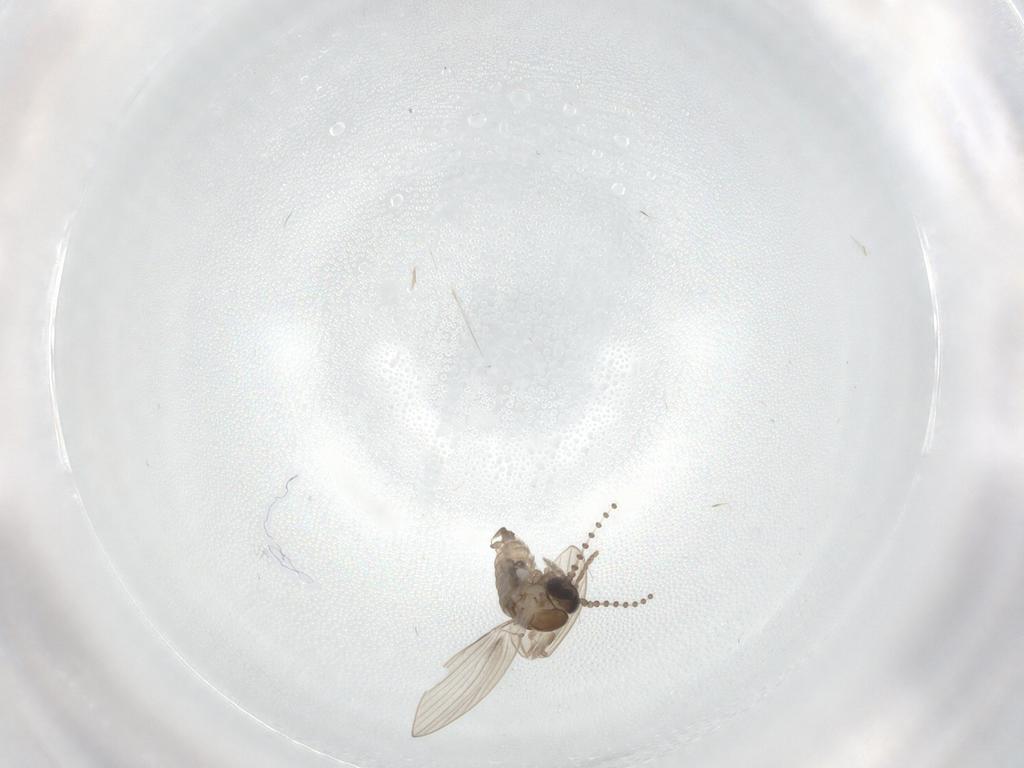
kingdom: Animalia
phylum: Arthropoda
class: Insecta
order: Diptera
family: Psychodidae
